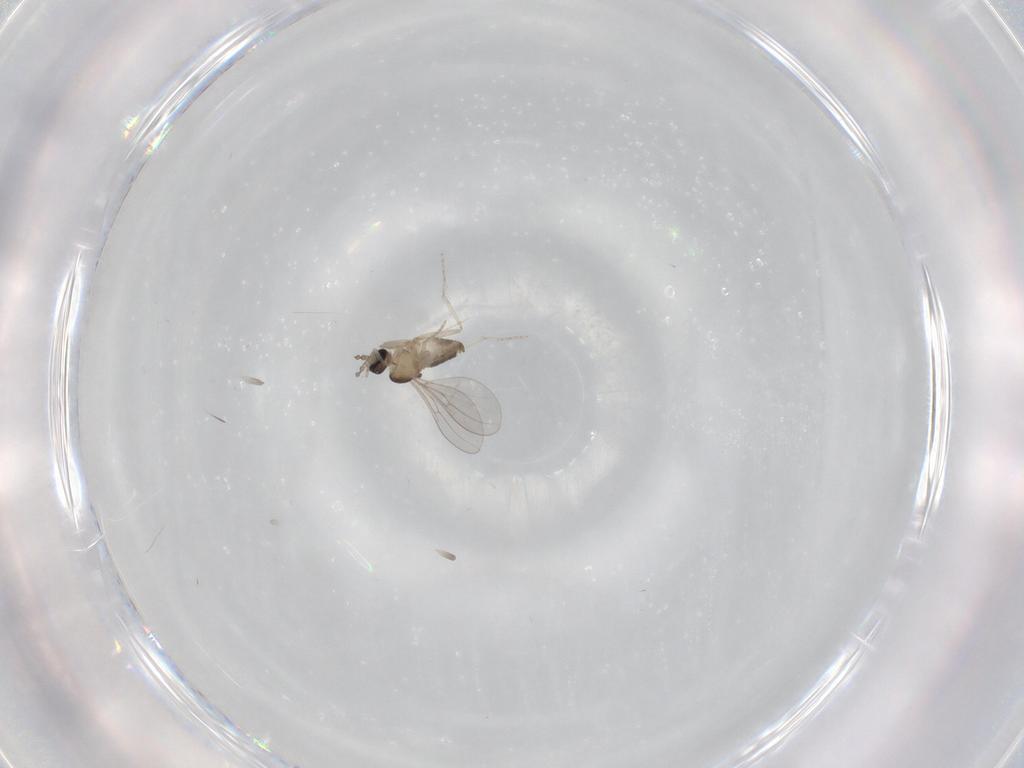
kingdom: Animalia
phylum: Arthropoda
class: Insecta
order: Diptera
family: Cecidomyiidae
